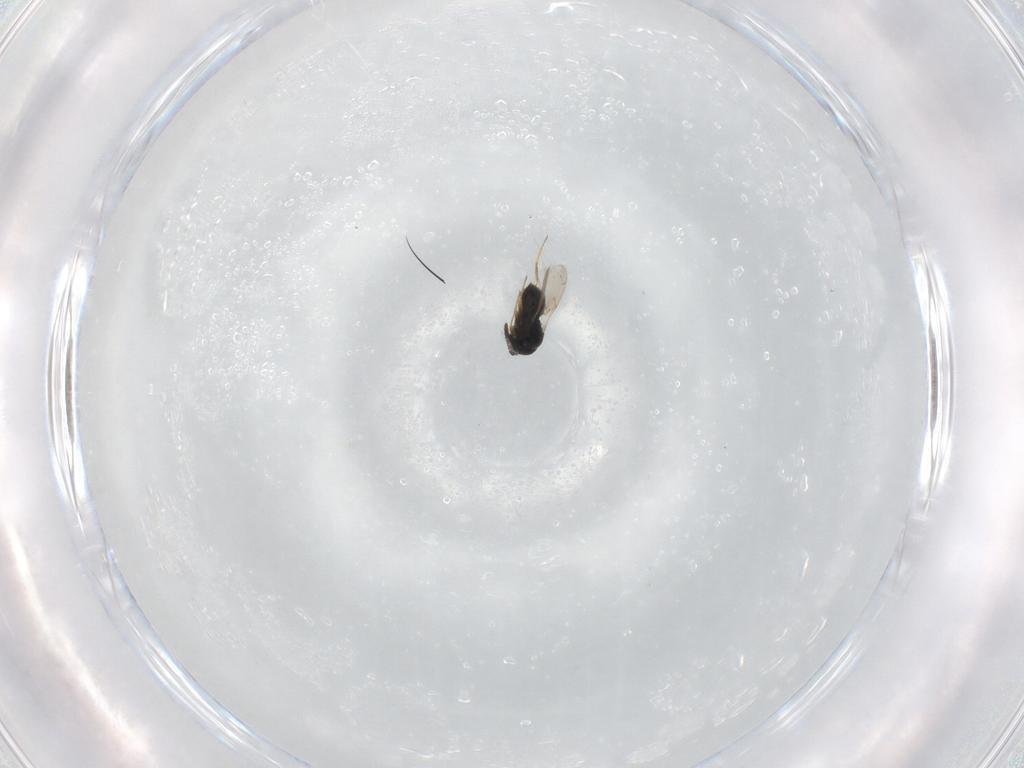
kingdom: Animalia
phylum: Arthropoda
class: Insecta
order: Hymenoptera
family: Scelionidae
